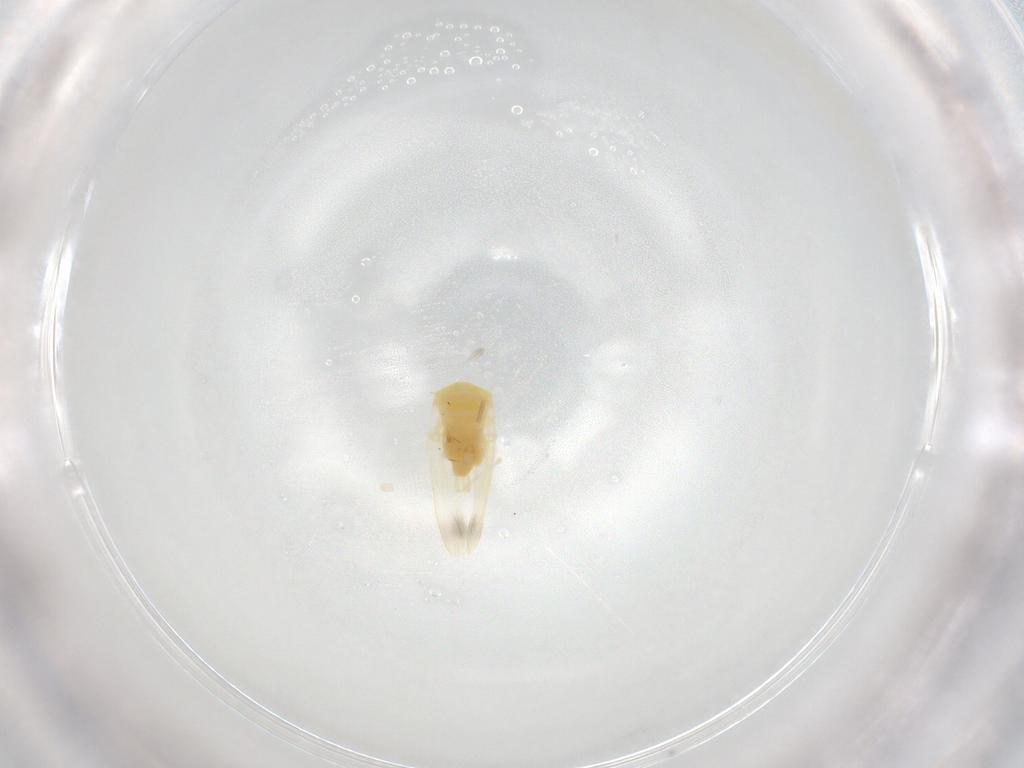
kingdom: Animalia
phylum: Arthropoda
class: Insecta
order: Hemiptera
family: Aleyrodidae
